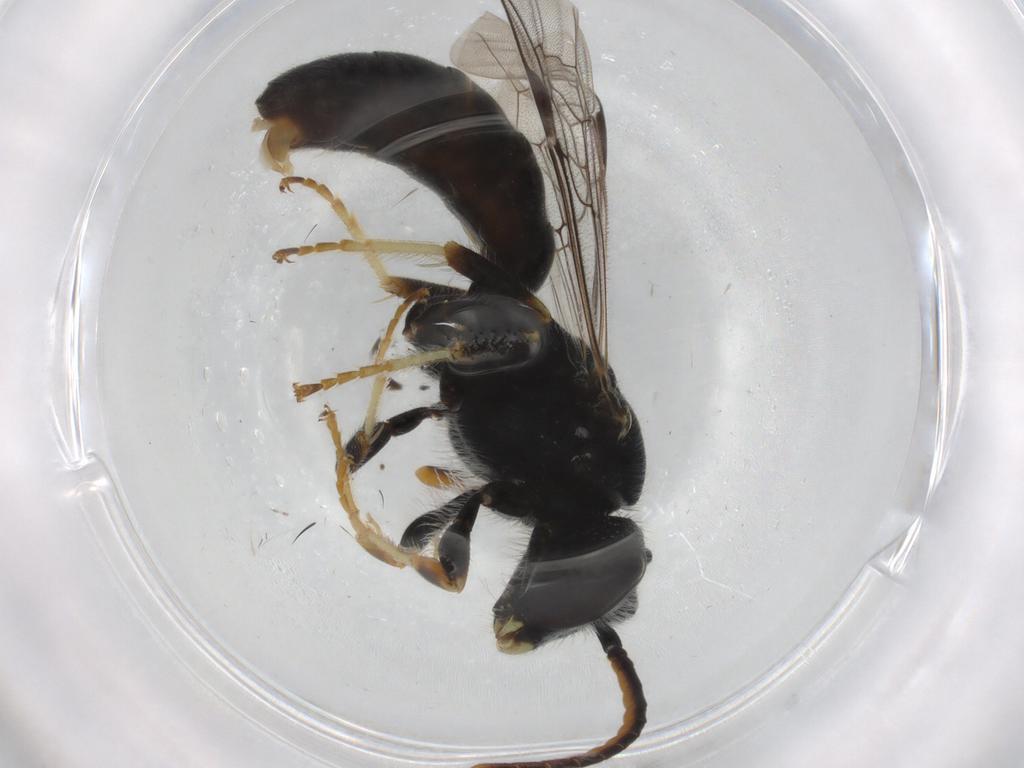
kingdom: Animalia
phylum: Arthropoda
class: Insecta
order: Hymenoptera
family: Halictidae
